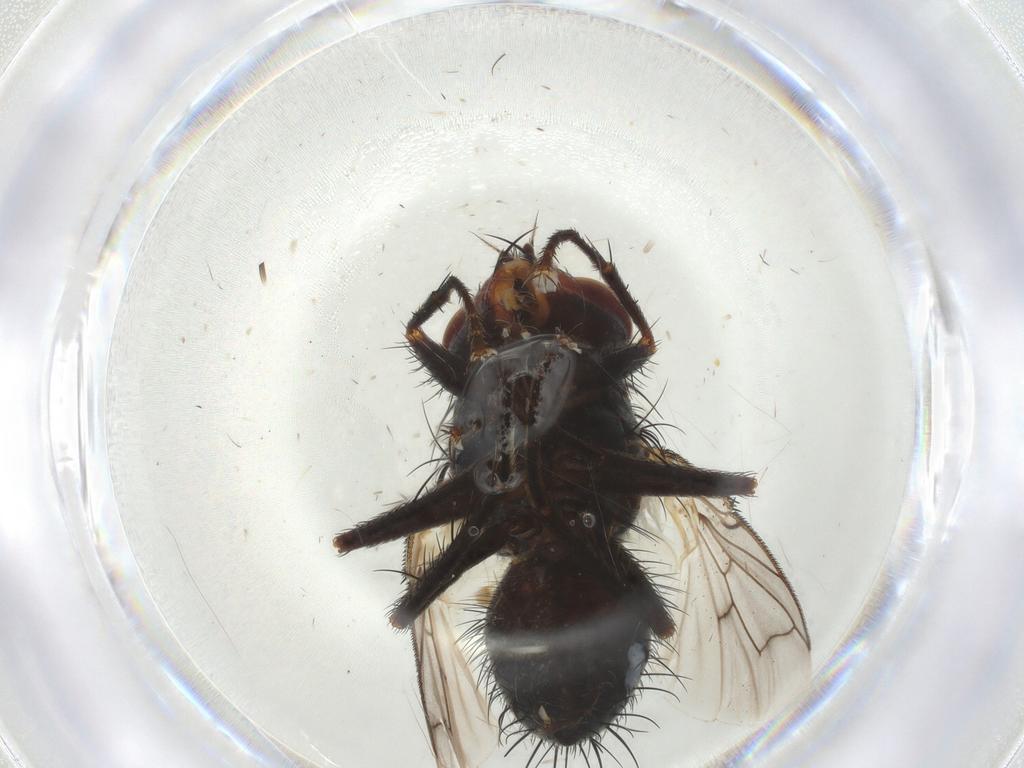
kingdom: Animalia
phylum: Arthropoda
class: Insecta
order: Diptera
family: Tachinidae
